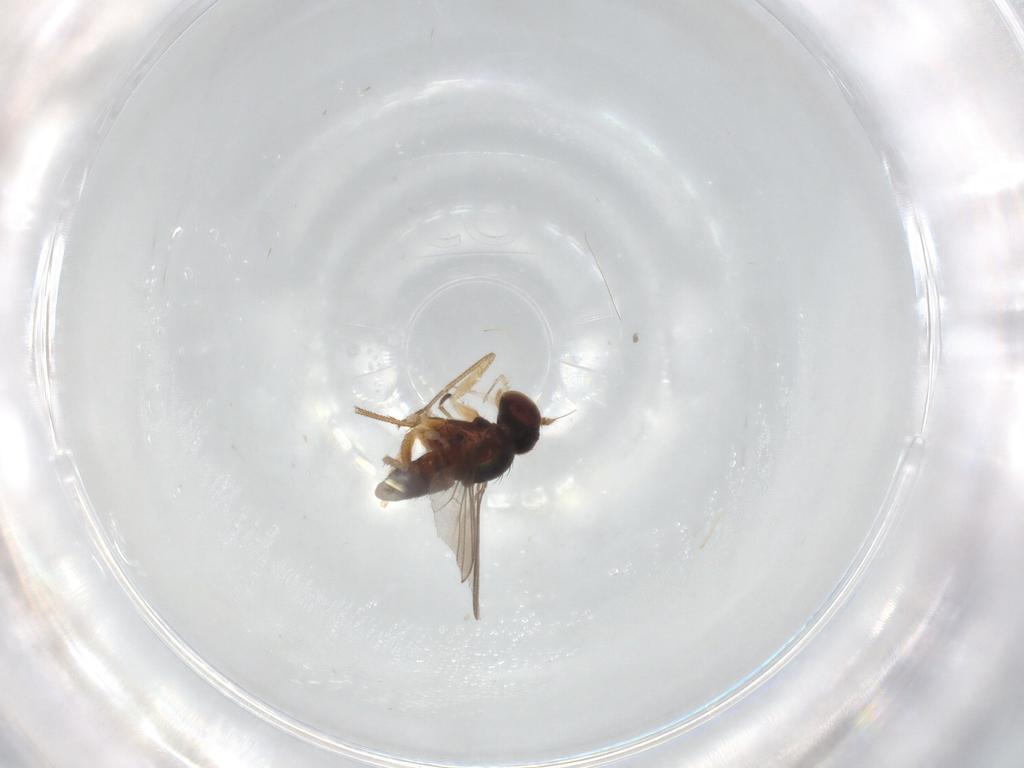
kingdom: Animalia
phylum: Arthropoda
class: Insecta
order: Diptera
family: Dolichopodidae
